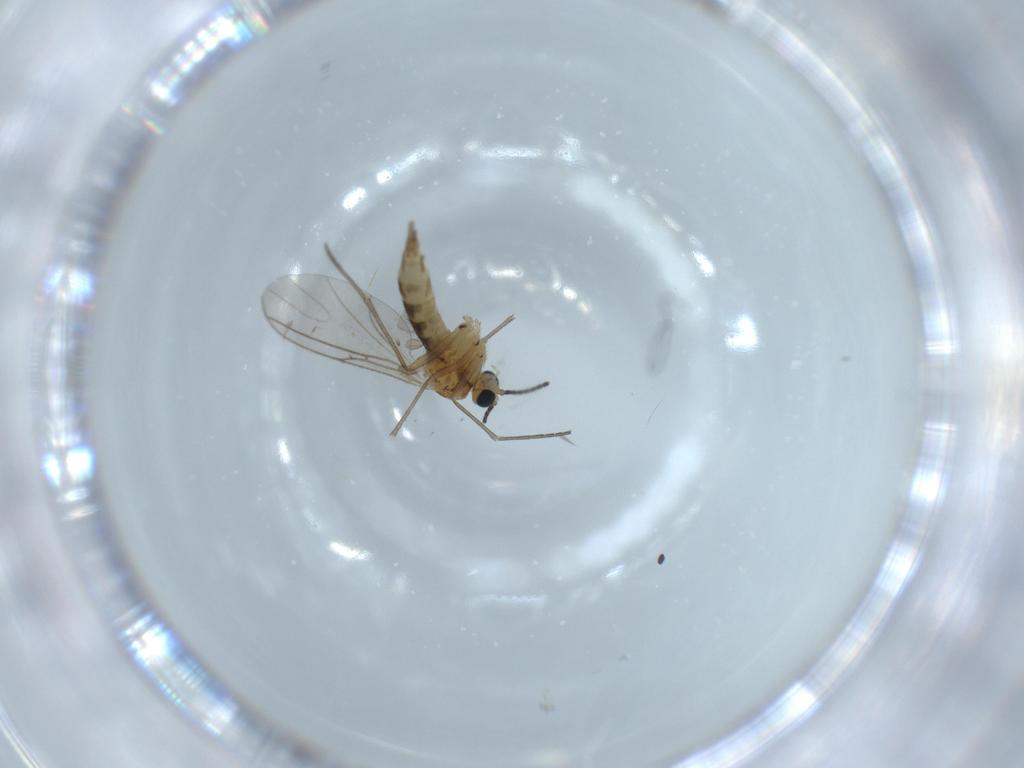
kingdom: Animalia
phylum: Arthropoda
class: Insecta
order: Diptera
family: Sciaridae
